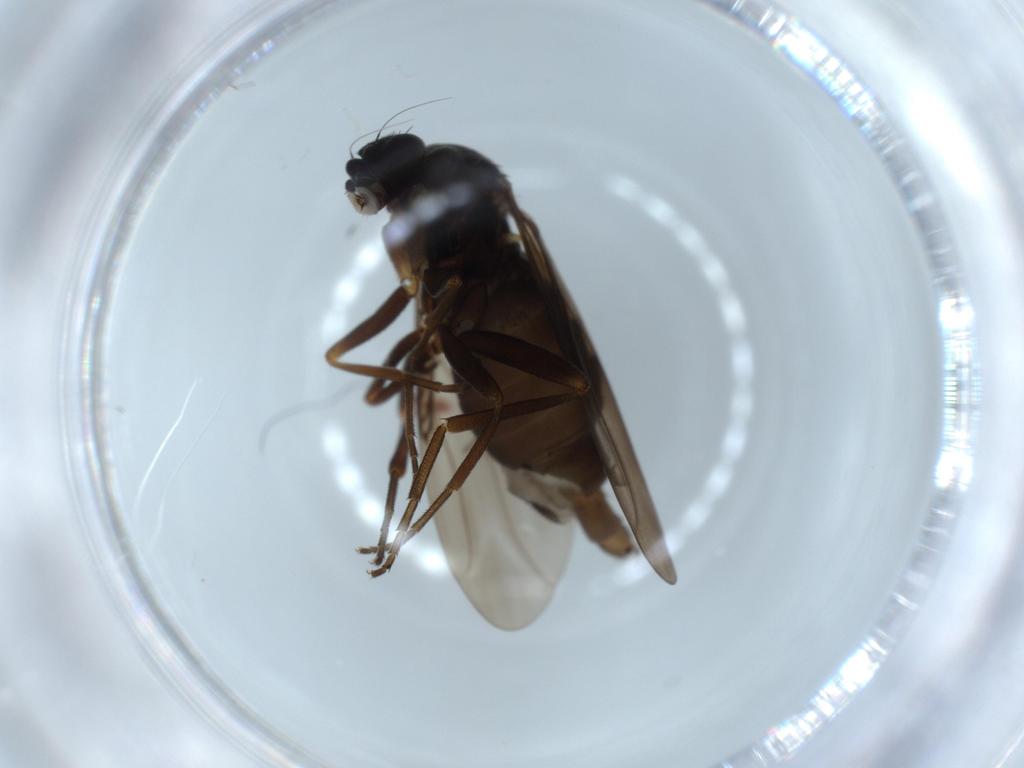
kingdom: Animalia
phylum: Arthropoda
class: Insecta
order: Diptera
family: Phoridae
